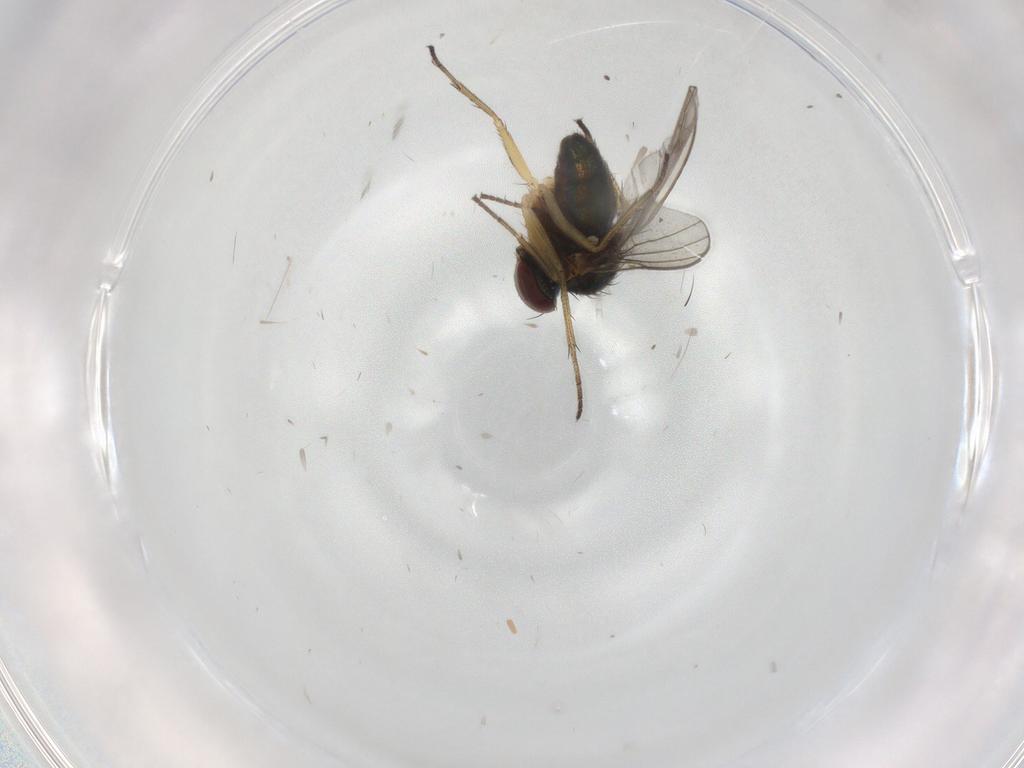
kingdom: Animalia
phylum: Arthropoda
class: Insecta
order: Diptera
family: Dolichopodidae
